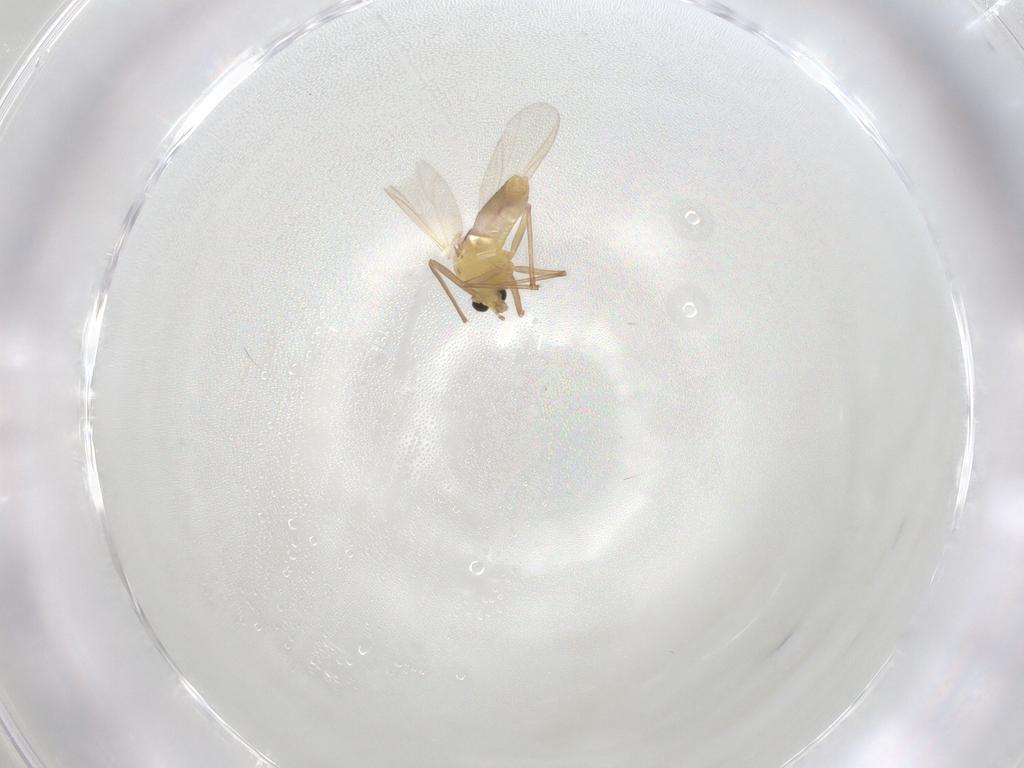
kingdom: Animalia
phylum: Arthropoda
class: Insecta
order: Diptera
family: Chironomidae
